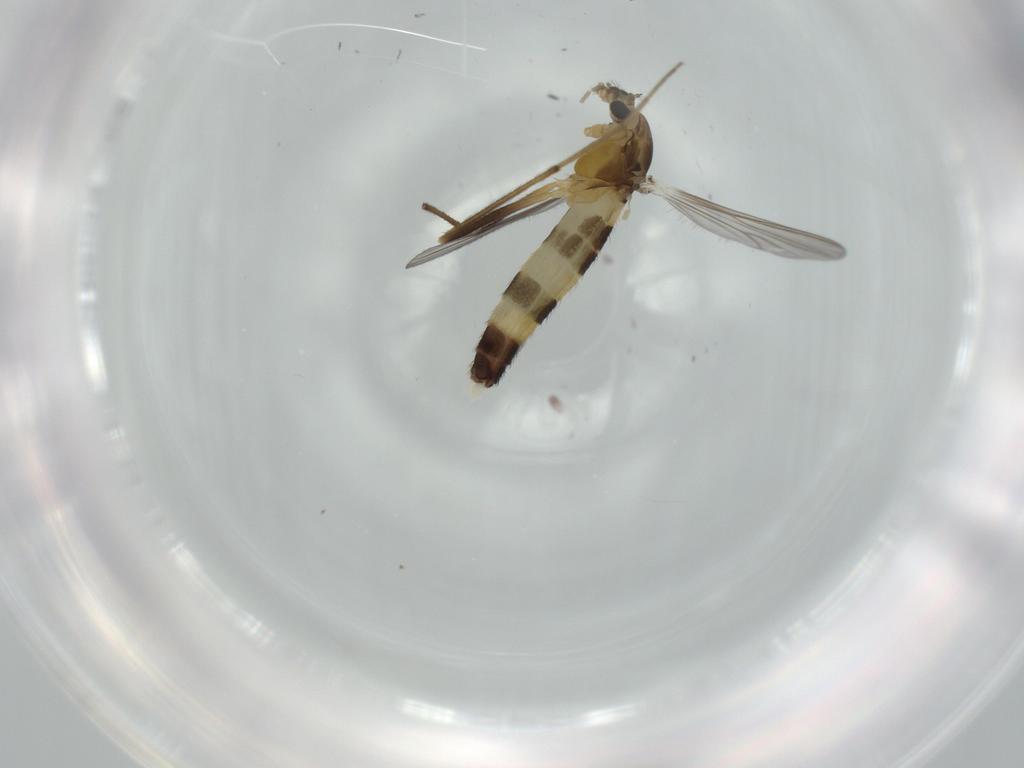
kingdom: Animalia
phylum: Arthropoda
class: Insecta
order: Diptera
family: Chironomidae
